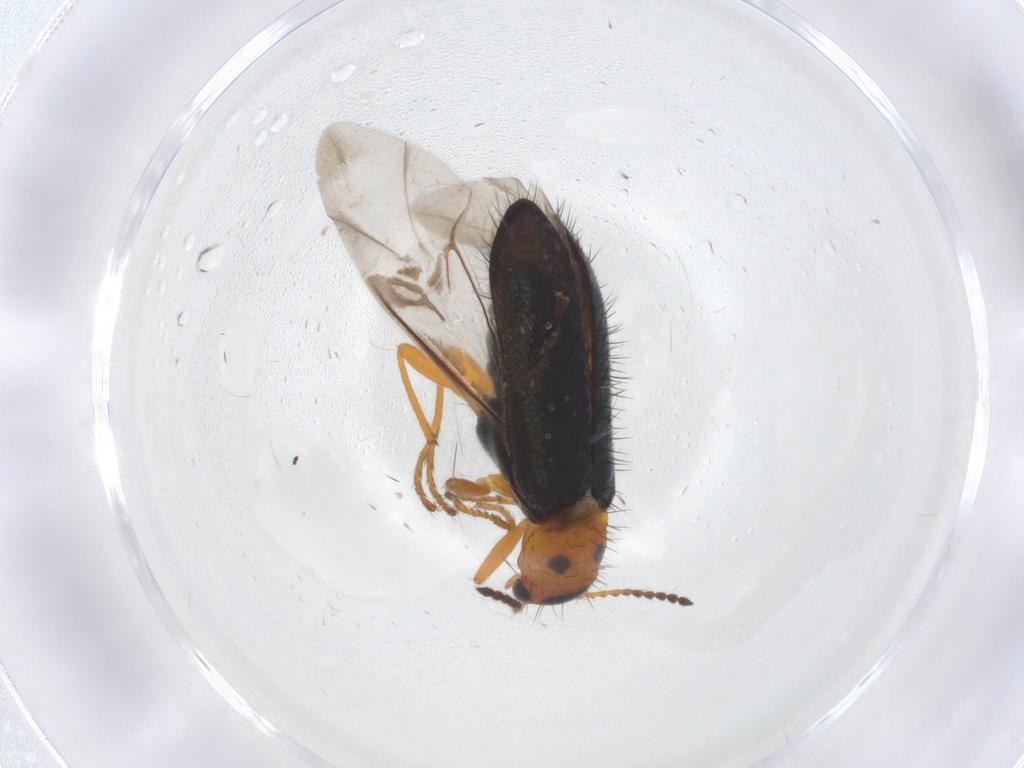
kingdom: Animalia
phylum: Arthropoda
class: Insecta
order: Coleoptera
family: Melyridae
